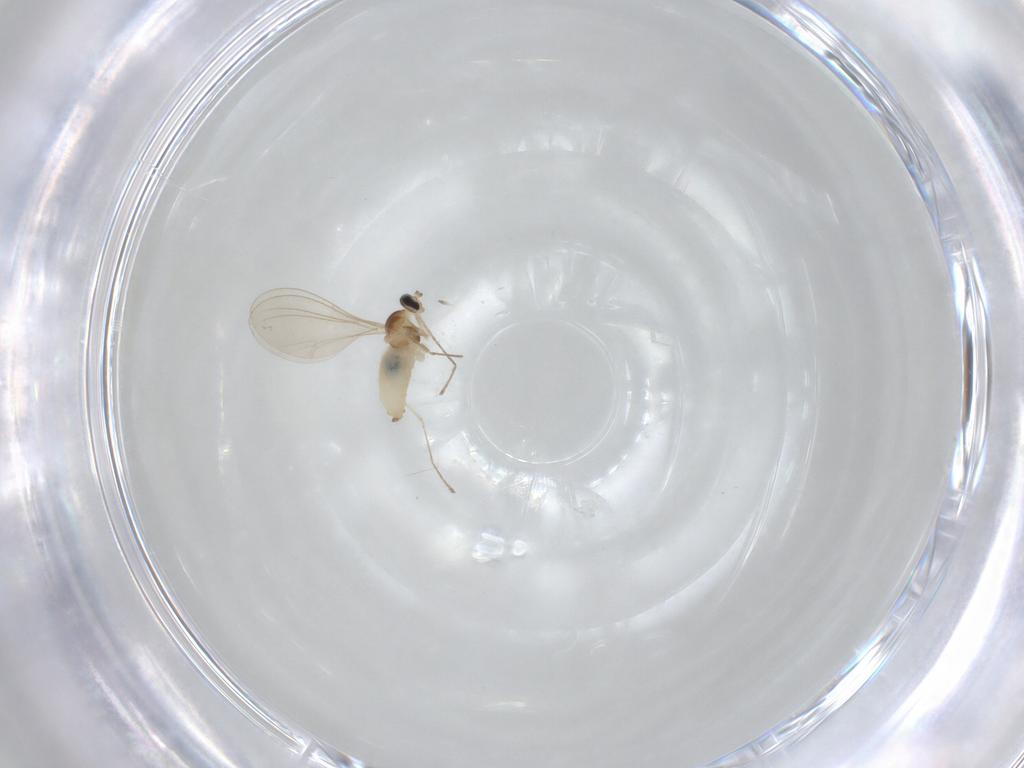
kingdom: Animalia
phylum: Arthropoda
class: Insecta
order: Diptera
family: Chironomidae
